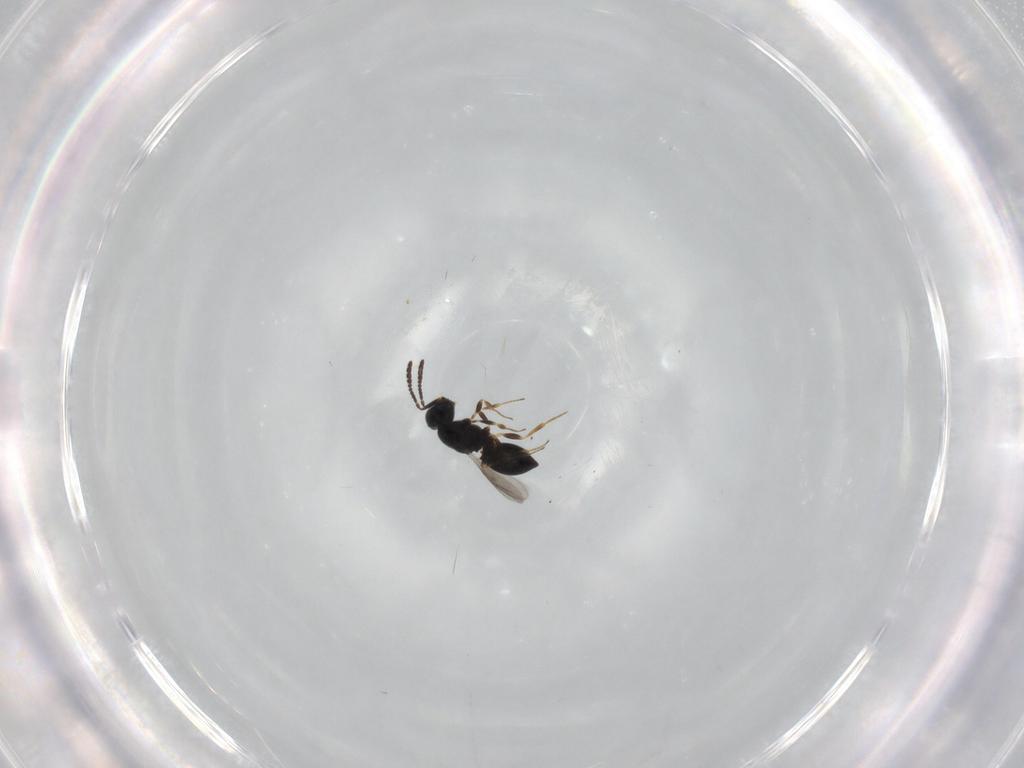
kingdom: Animalia
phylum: Arthropoda
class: Insecta
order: Hymenoptera
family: Scelionidae
